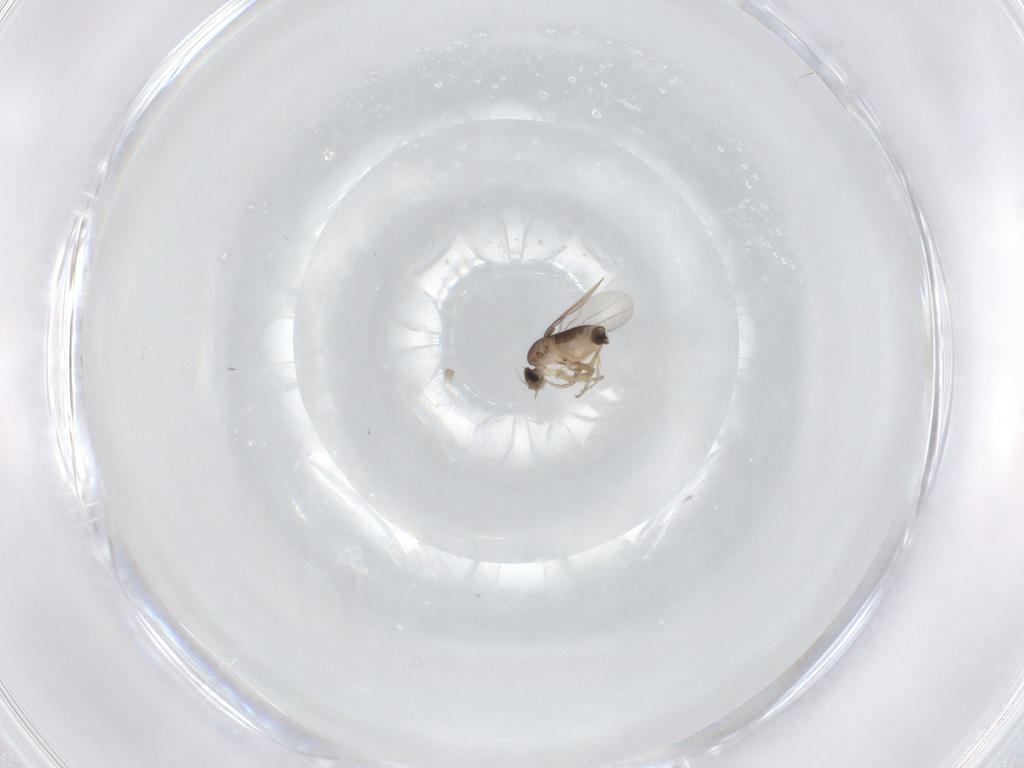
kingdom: Animalia
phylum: Arthropoda
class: Insecta
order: Diptera
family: Phoridae
